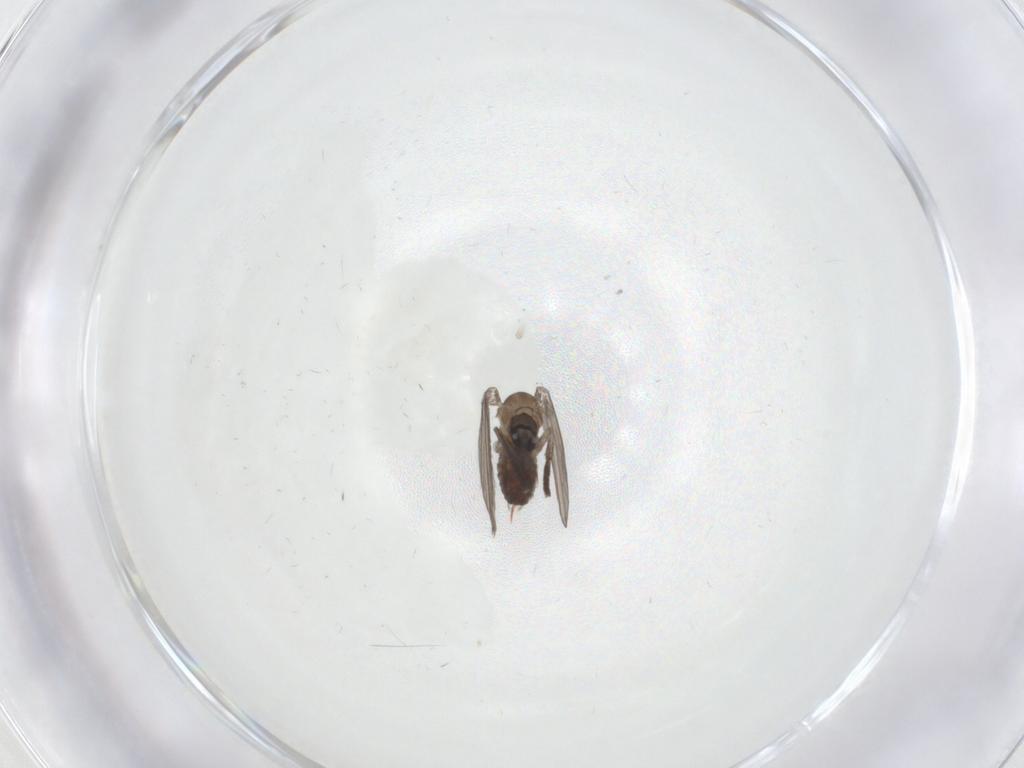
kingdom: Animalia
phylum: Arthropoda
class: Insecta
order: Diptera
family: Psychodidae
